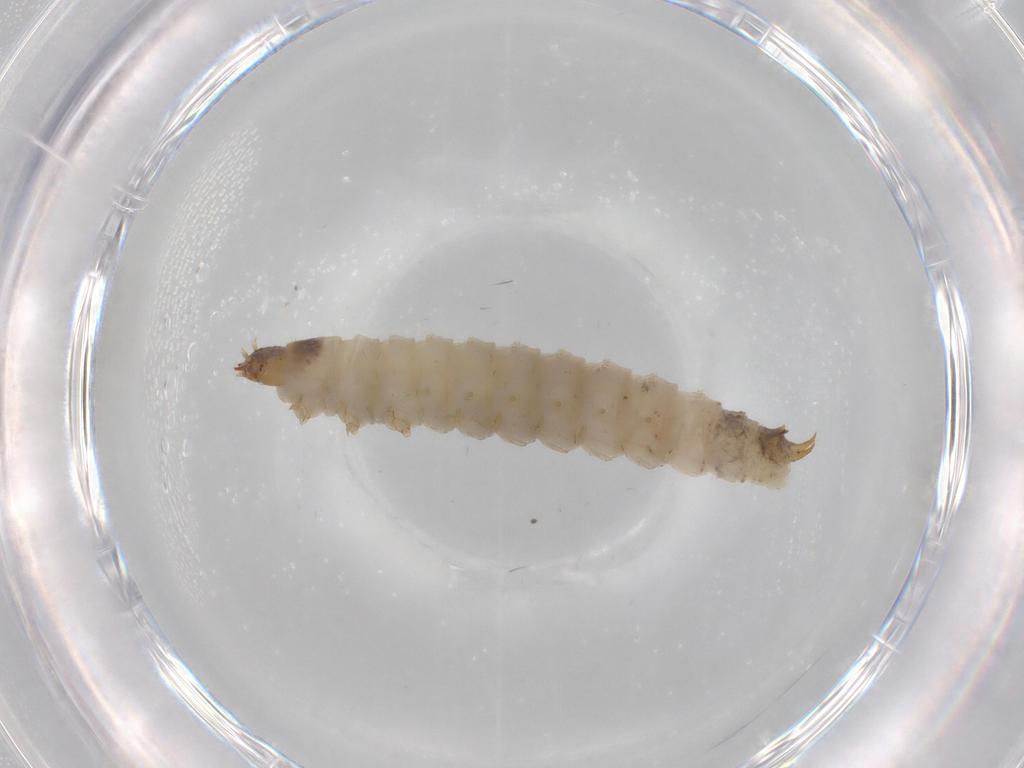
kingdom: Animalia
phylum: Arthropoda
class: Insecta
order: Coleoptera
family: Nitidulidae
